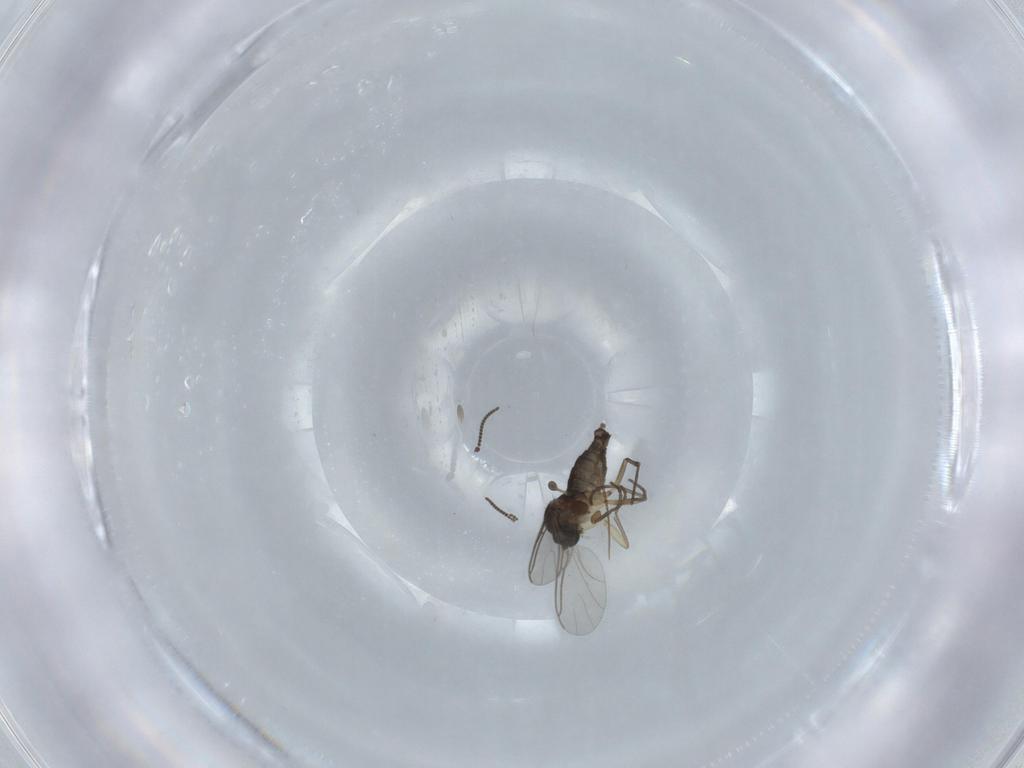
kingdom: Animalia
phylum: Arthropoda
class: Insecta
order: Diptera
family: Sciaridae
